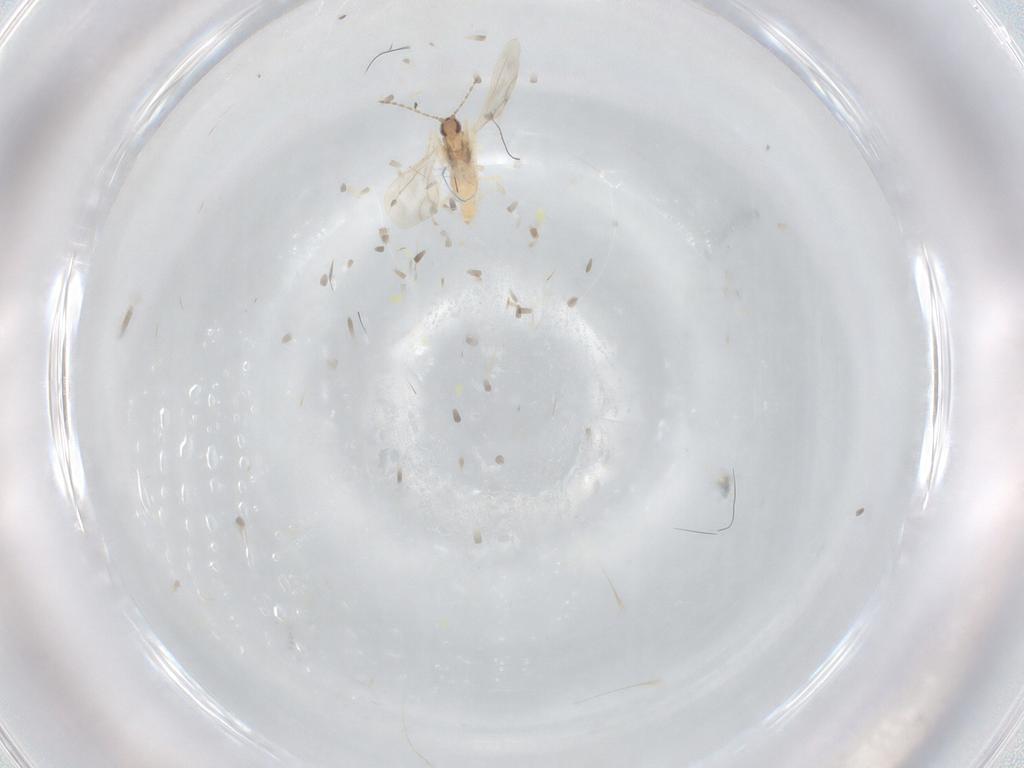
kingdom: Animalia
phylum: Arthropoda
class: Insecta
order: Diptera
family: Cecidomyiidae
